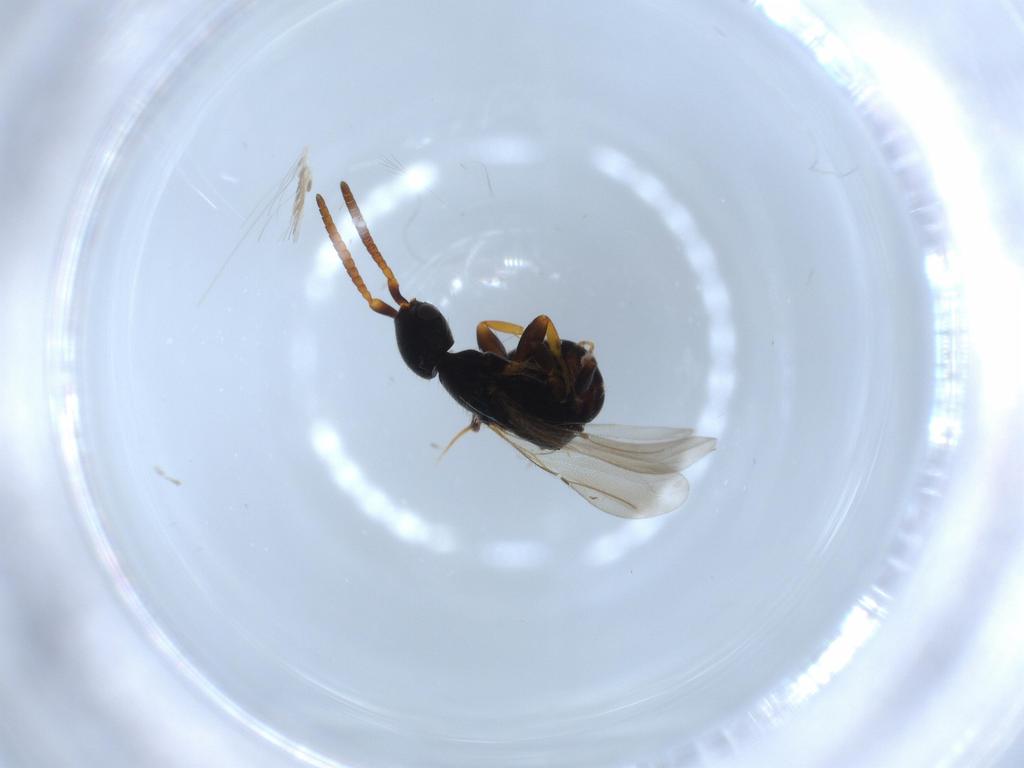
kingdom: Animalia
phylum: Arthropoda
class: Insecta
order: Hymenoptera
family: Bethylidae
